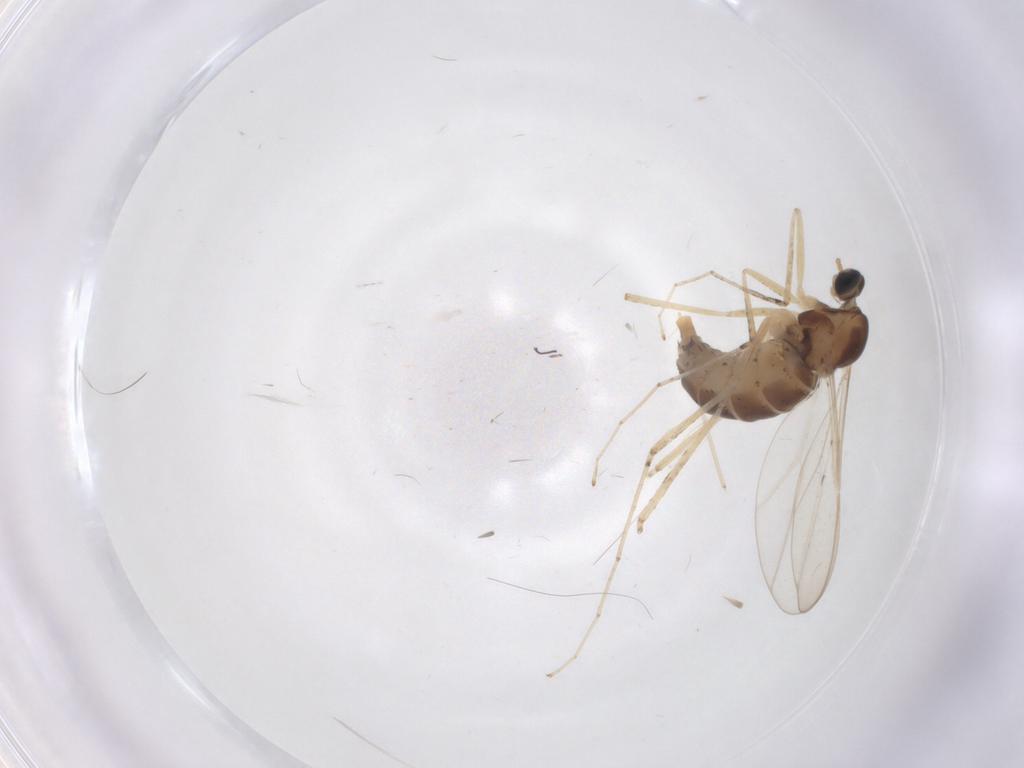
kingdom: Animalia
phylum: Arthropoda
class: Insecta
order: Diptera
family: Cecidomyiidae
